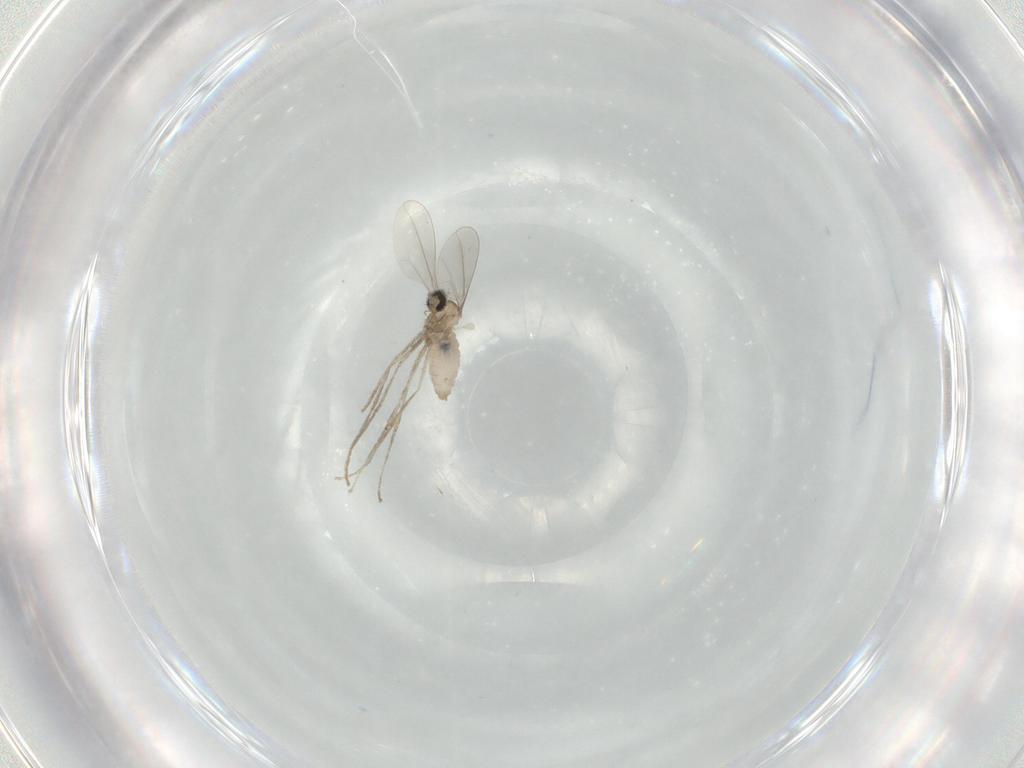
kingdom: Animalia
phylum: Arthropoda
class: Insecta
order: Diptera
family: Cecidomyiidae
